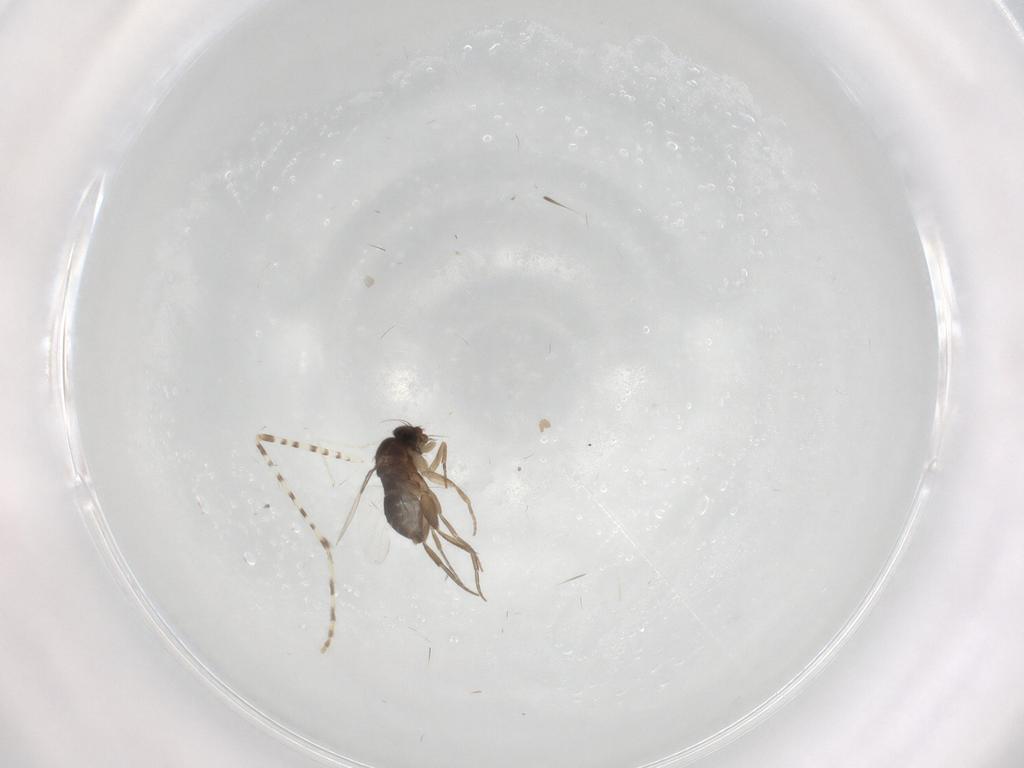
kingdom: Animalia
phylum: Arthropoda
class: Insecta
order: Diptera
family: Phoridae
